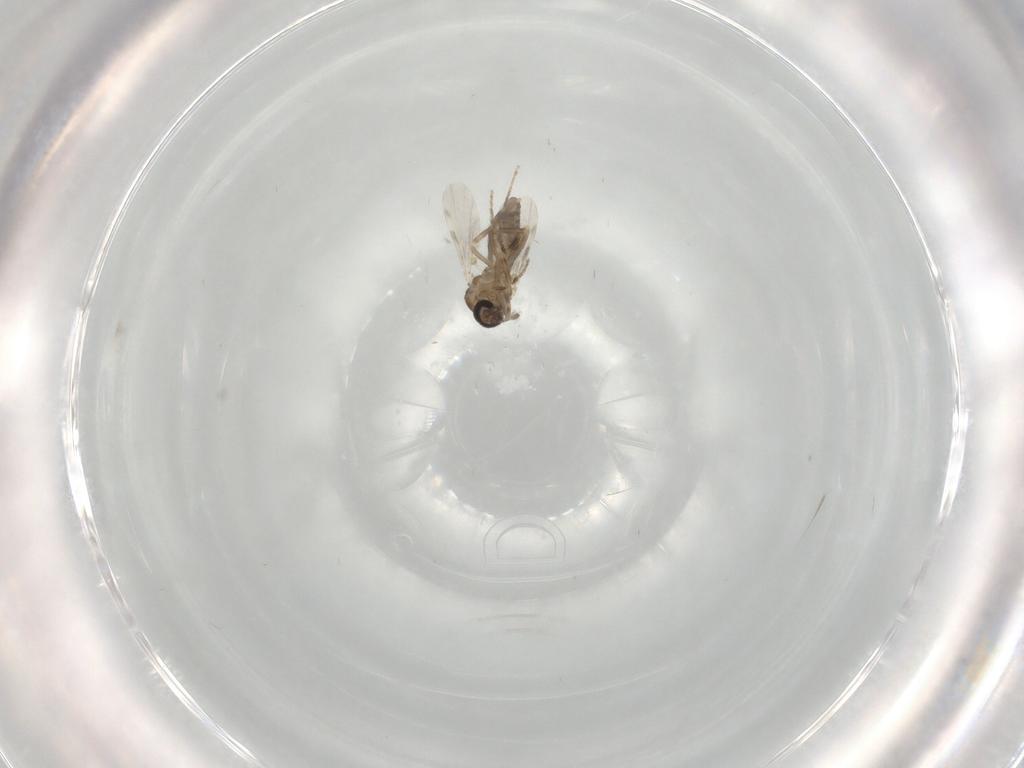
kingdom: Animalia
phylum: Arthropoda
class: Insecta
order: Diptera
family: Ceratopogonidae
